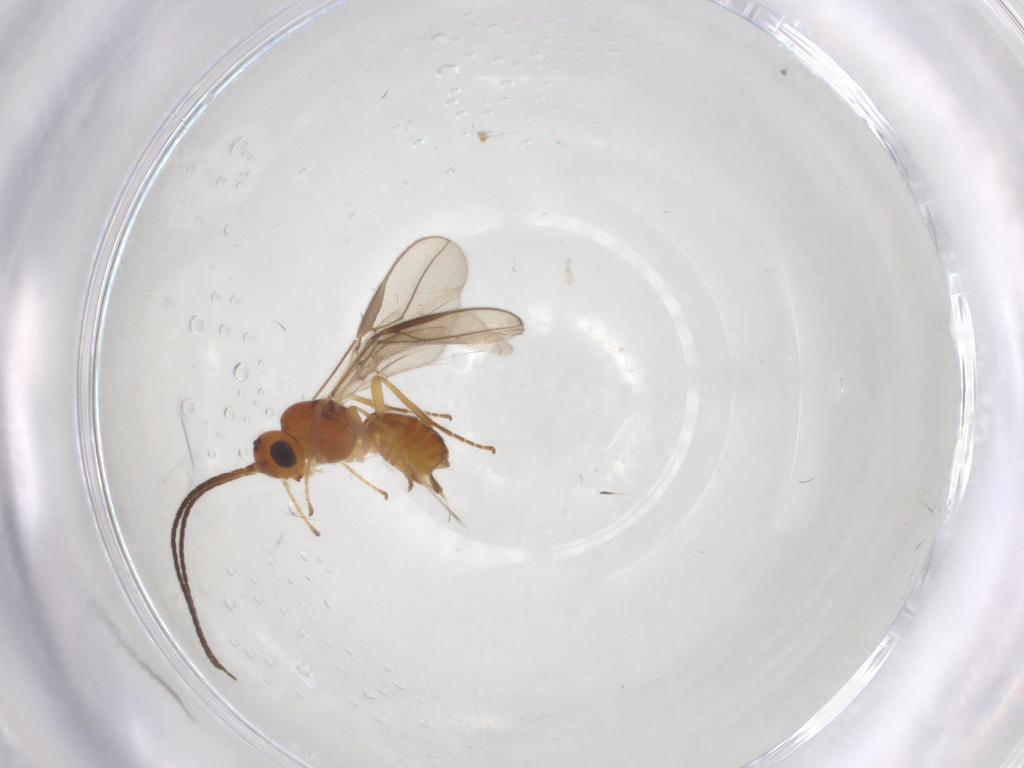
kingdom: Animalia
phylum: Arthropoda
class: Insecta
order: Hymenoptera
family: Braconidae
